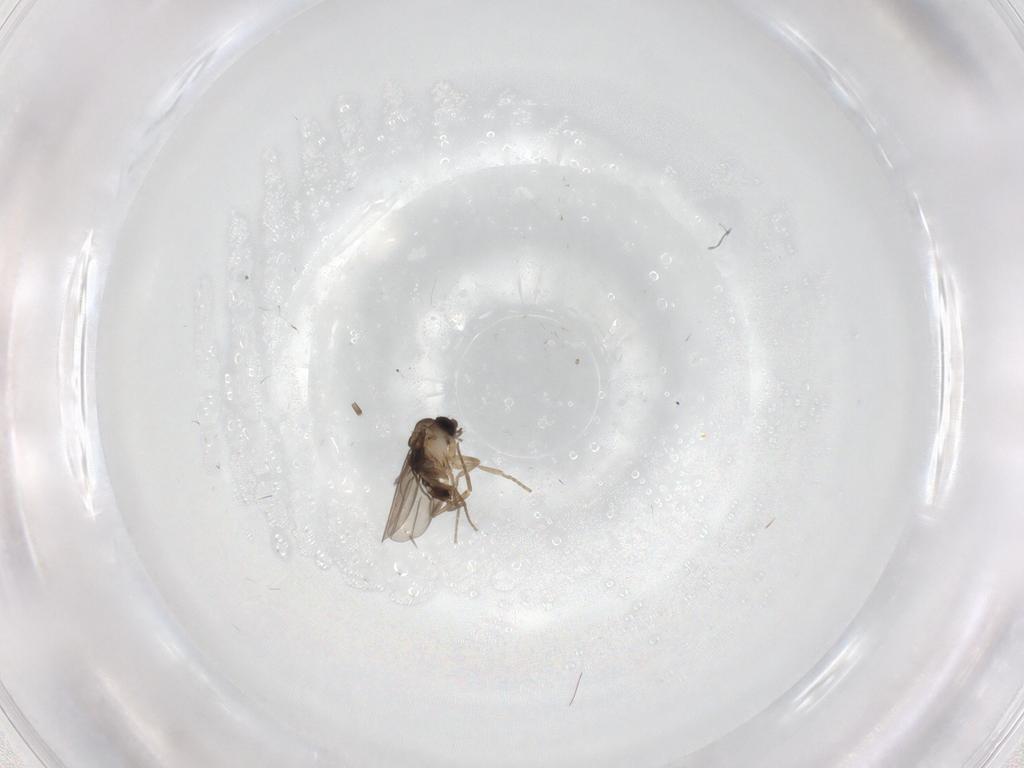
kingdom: Animalia
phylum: Arthropoda
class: Insecta
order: Diptera
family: Phoridae
